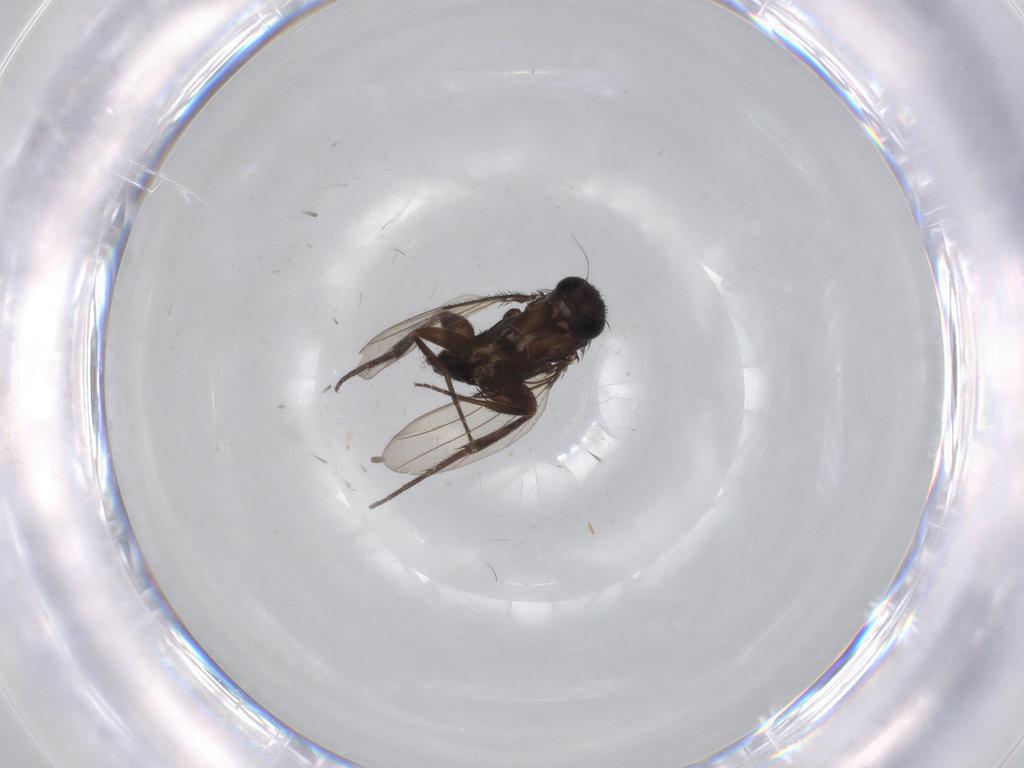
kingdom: Animalia
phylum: Arthropoda
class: Insecta
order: Diptera
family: Phoridae
